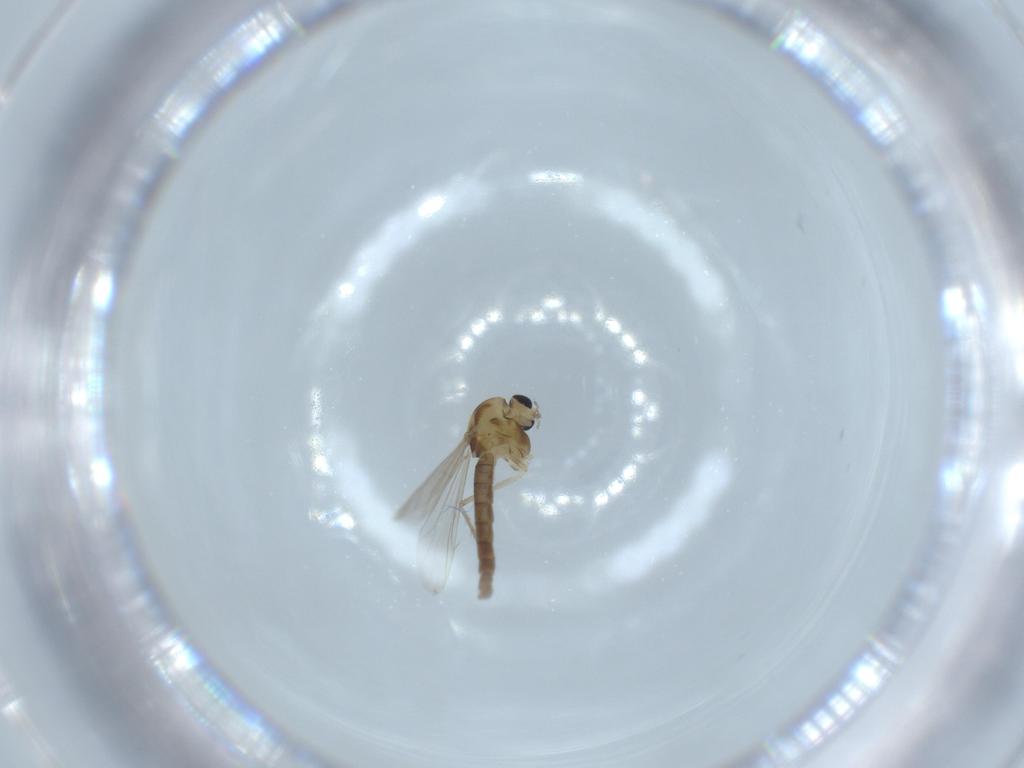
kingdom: Animalia
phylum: Arthropoda
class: Insecta
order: Diptera
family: Chironomidae
